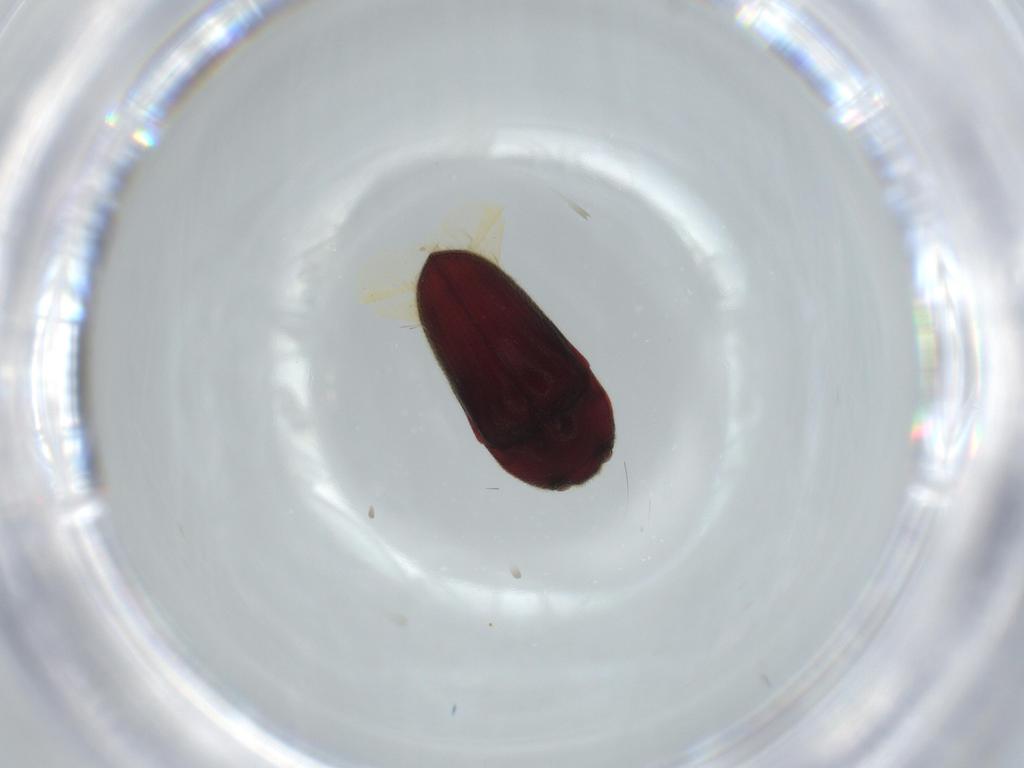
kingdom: Animalia
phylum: Arthropoda
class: Insecta
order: Coleoptera
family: Throscidae
